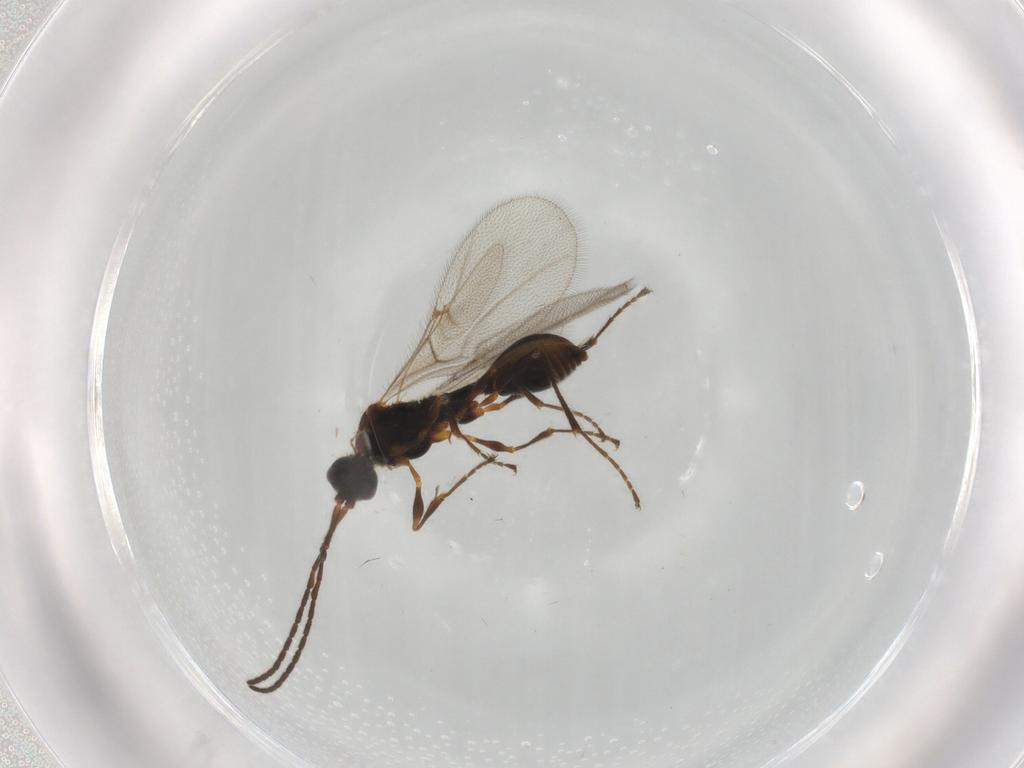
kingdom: Animalia
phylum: Arthropoda
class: Insecta
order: Hymenoptera
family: Diapriidae
